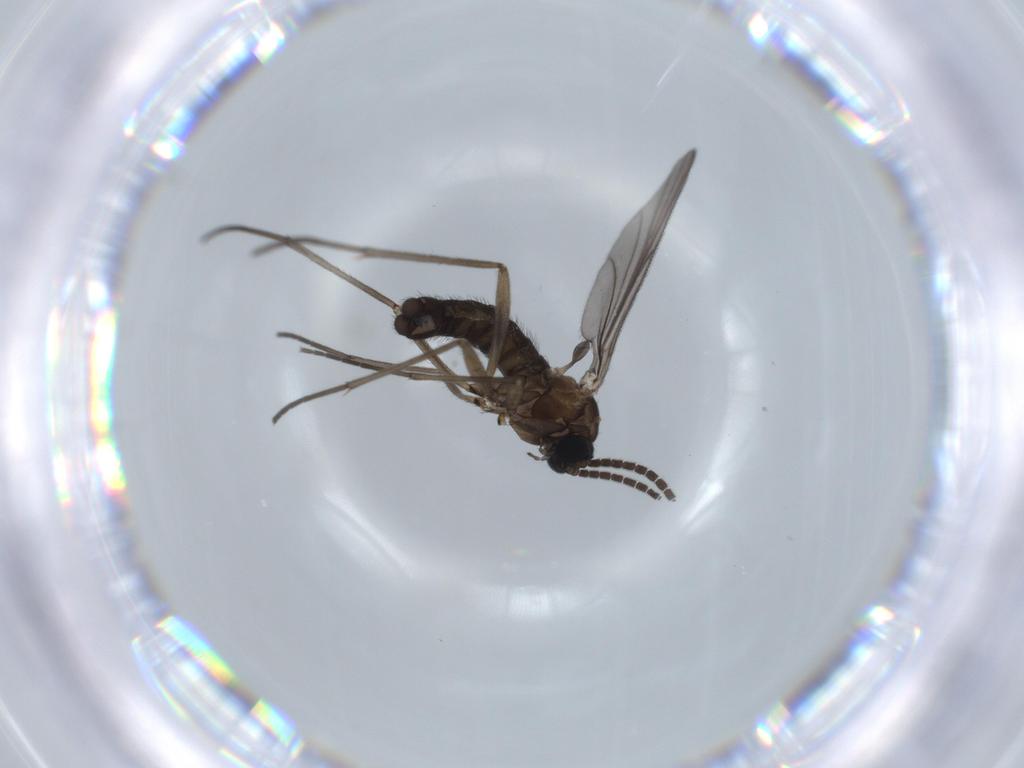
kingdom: Animalia
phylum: Arthropoda
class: Insecta
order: Diptera
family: Sciaridae
